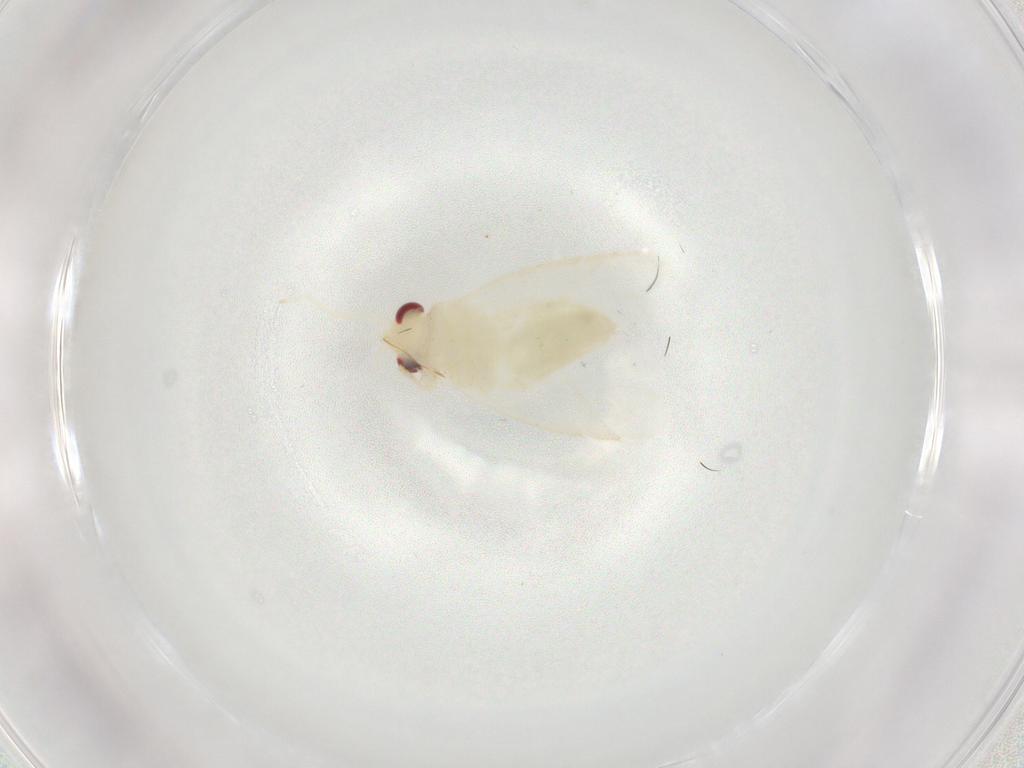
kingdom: Animalia
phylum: Arthropoda
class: Insecta
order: Hemiptera
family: Miridae
